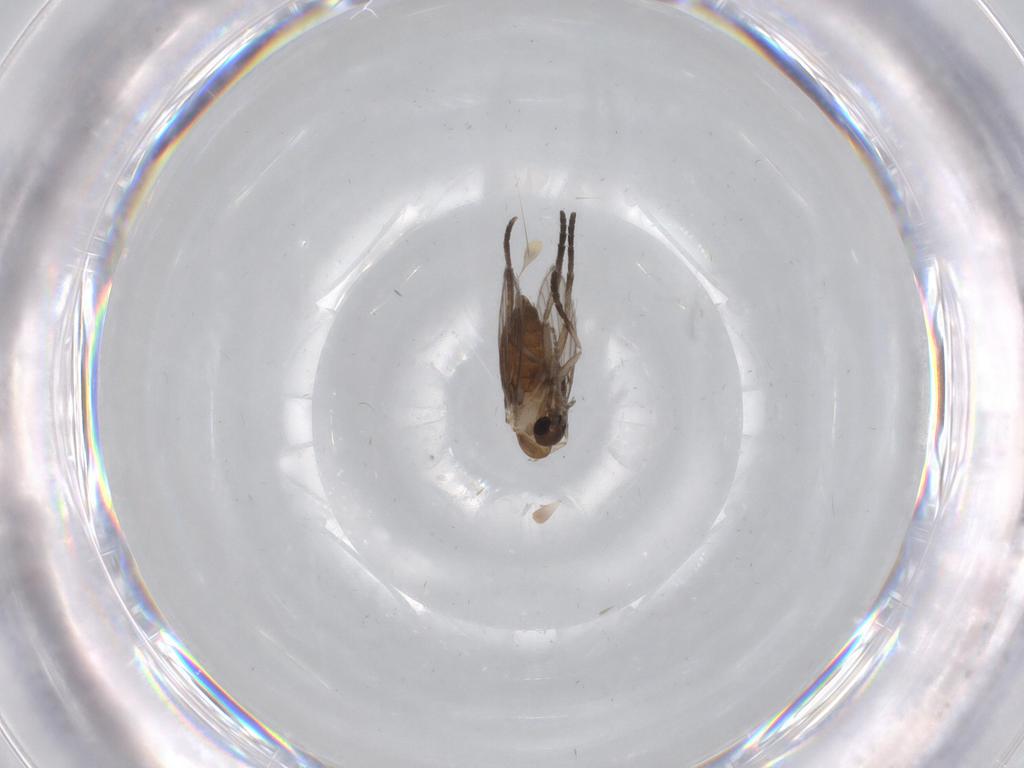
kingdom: Animalia
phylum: Arthropoda
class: Insecta
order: Diptera
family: Psychodidae
